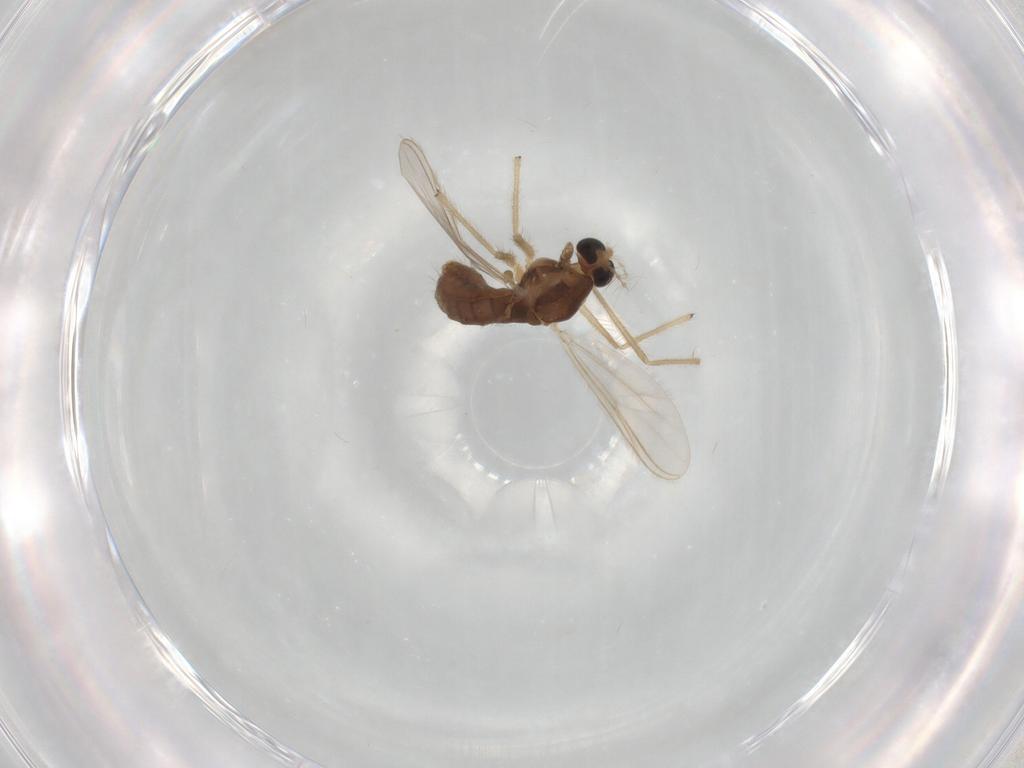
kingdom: Animalia
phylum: Arthropoda
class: Insecta
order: Diptera
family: Chironomidae
